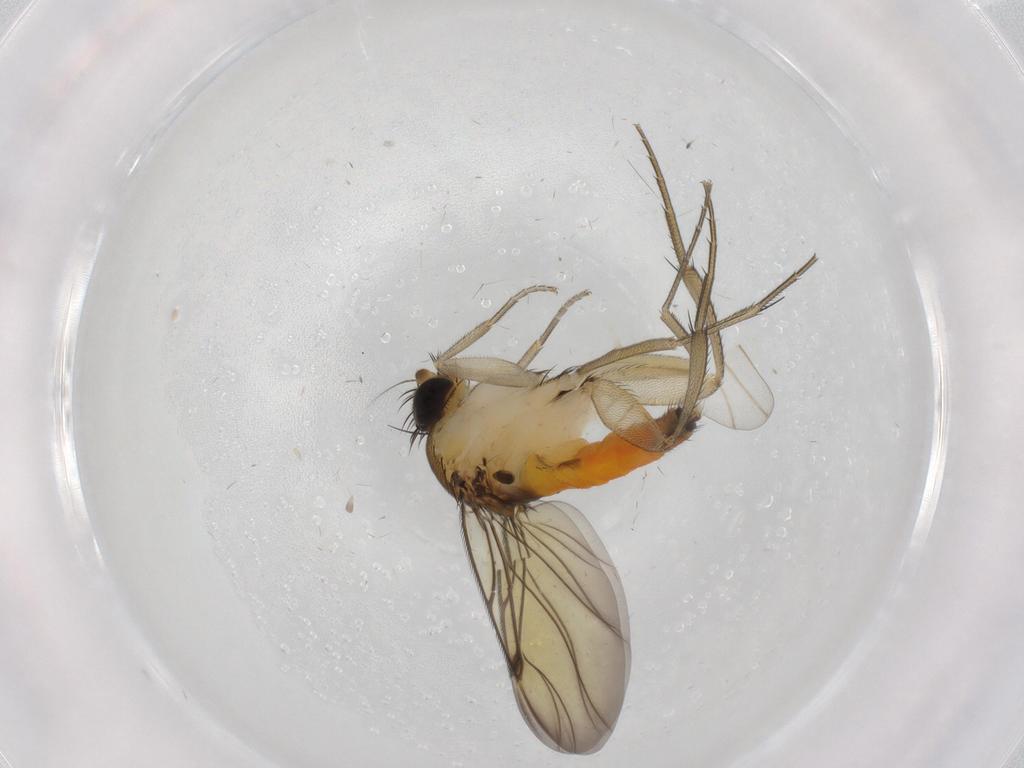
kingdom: Animalia
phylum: Arthropoda
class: Insecta
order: Diptera
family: Phoridae
